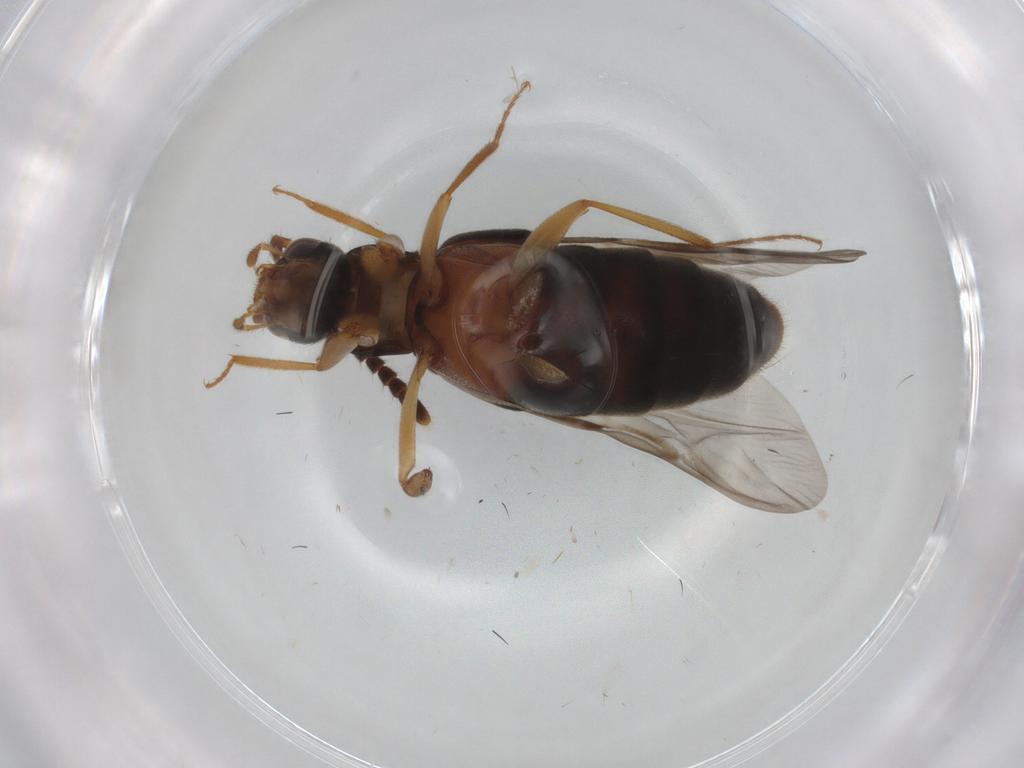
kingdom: Animalia
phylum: Arthropoda
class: Insecta
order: Coleoptera
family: Staphylinidae
